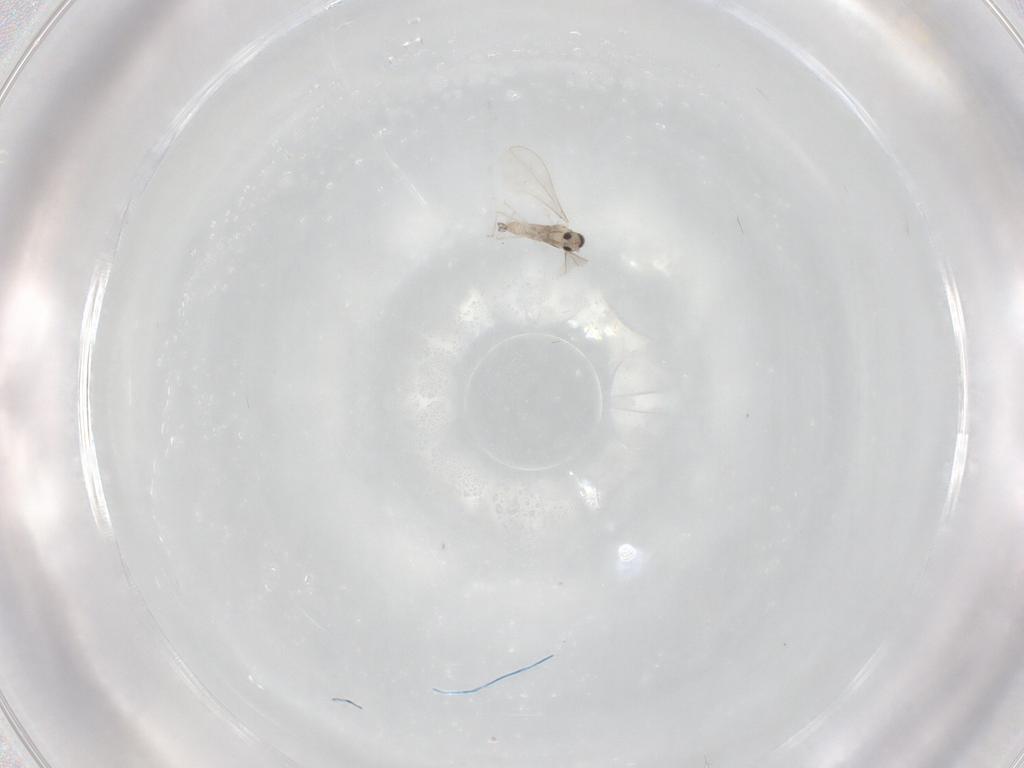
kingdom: Animalia
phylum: Arthropoda
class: Insecta
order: Diptera
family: Cecidomyiidae
